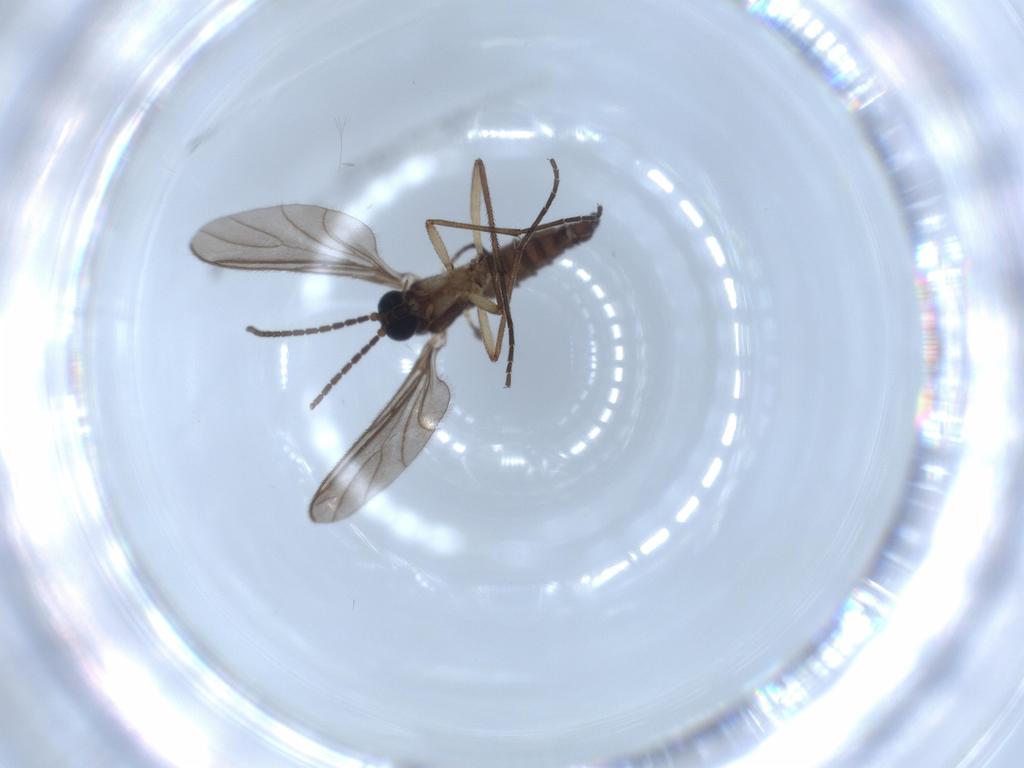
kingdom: Animalia
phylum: Arthropoda
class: Insecta
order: Diptera
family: Sciaridae
